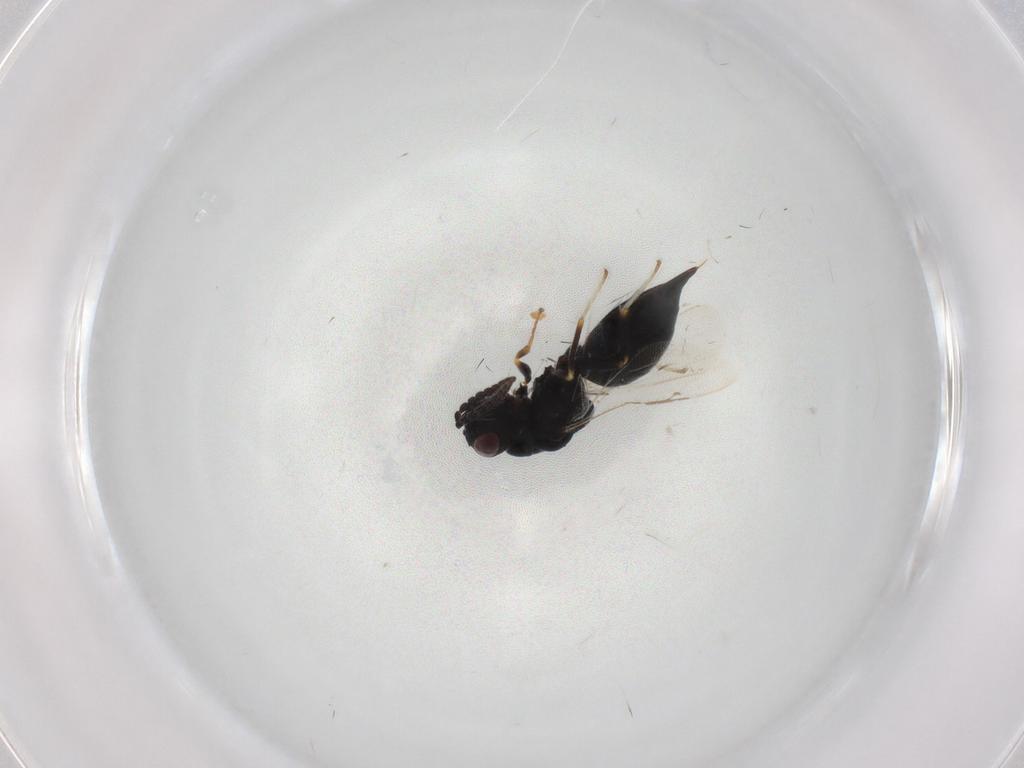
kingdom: Animalia
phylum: Arthropoda
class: Insecta
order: Hymenoptera
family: Eurytomidae
